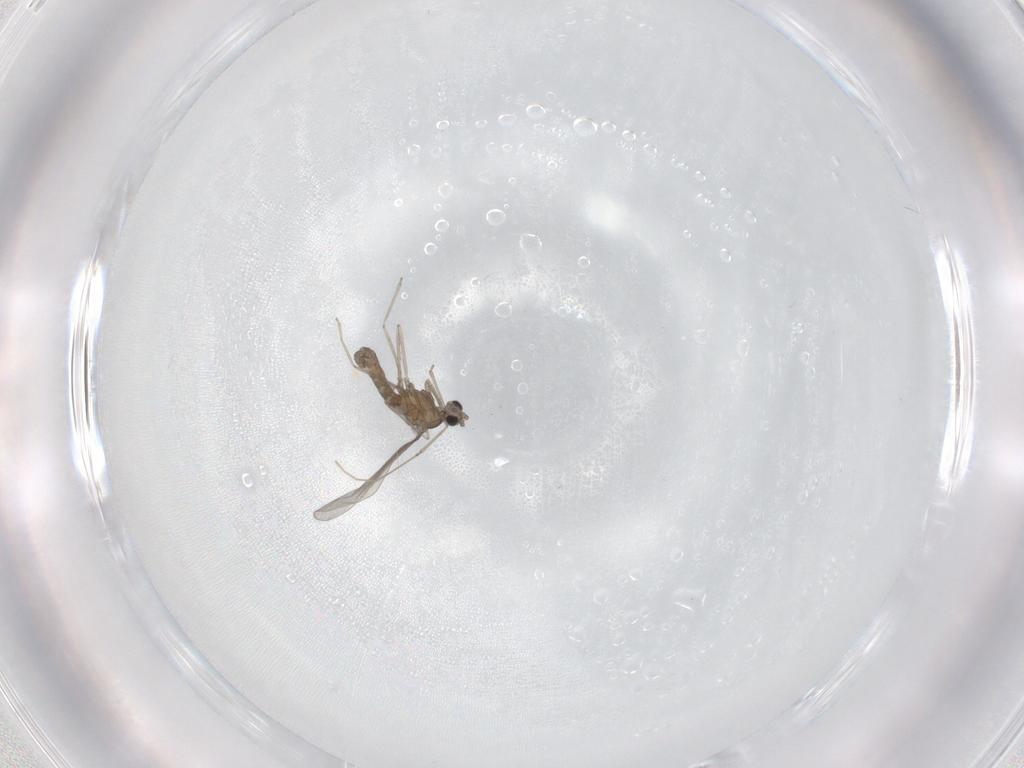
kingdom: Animalia
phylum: Arthropoda
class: Insecta
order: Diptera
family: Cecidomyiidae
